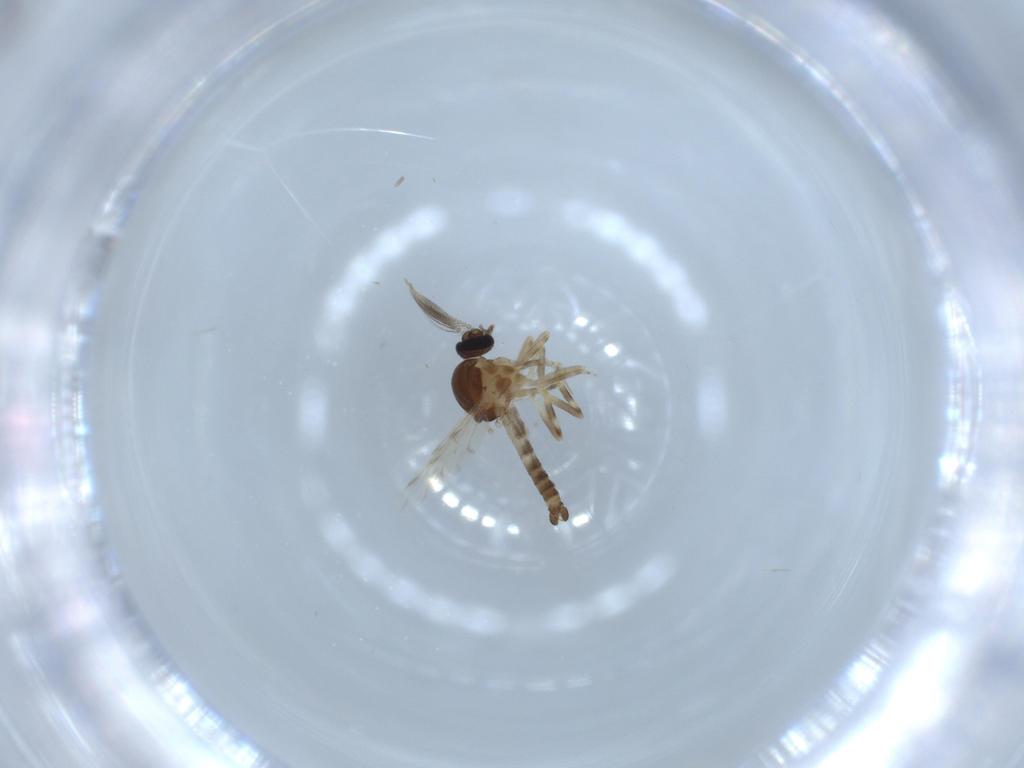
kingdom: Animalia
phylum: Arthropoda
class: Insecta
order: Diptera
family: Ceratopogonidae
